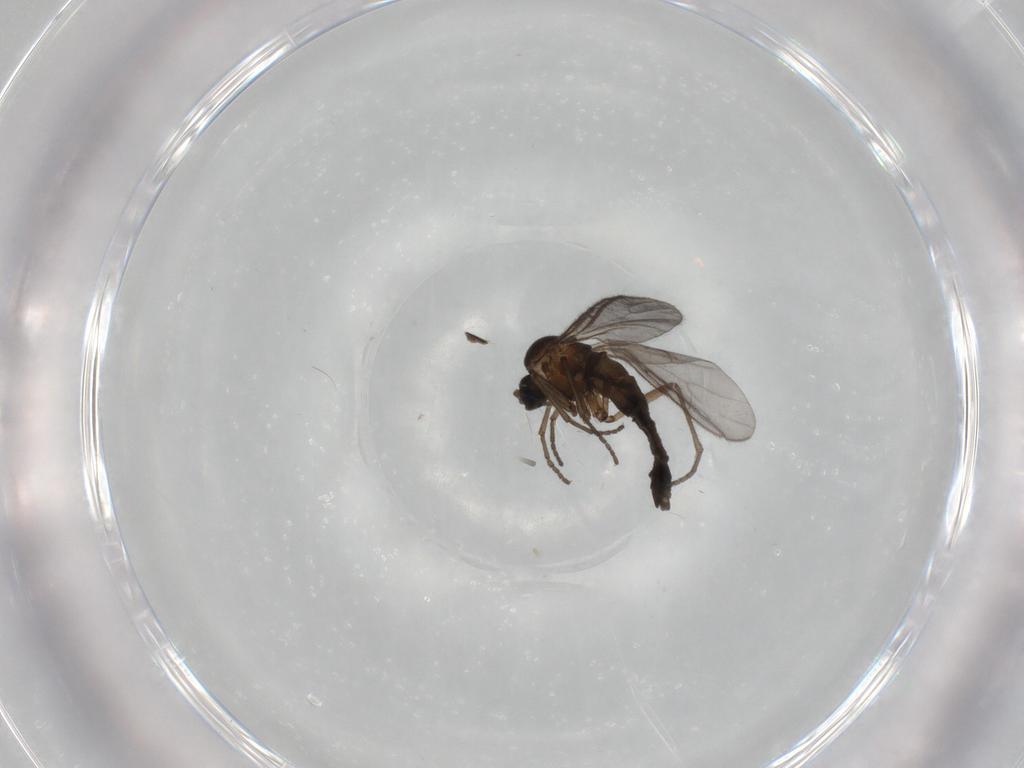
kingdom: Animalia
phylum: Arthropoda
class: Insecta
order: Diptera
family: Sciaridae
